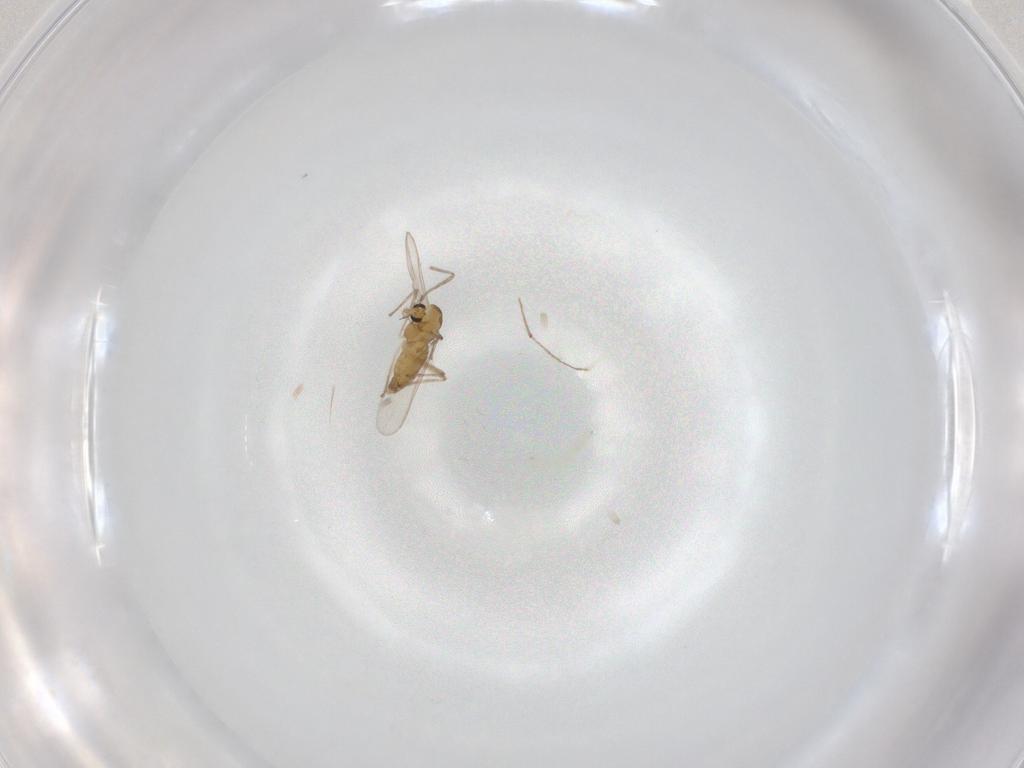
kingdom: Animalia
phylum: Arthropoda
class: Insecta
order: Diptera
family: Chironomidae
